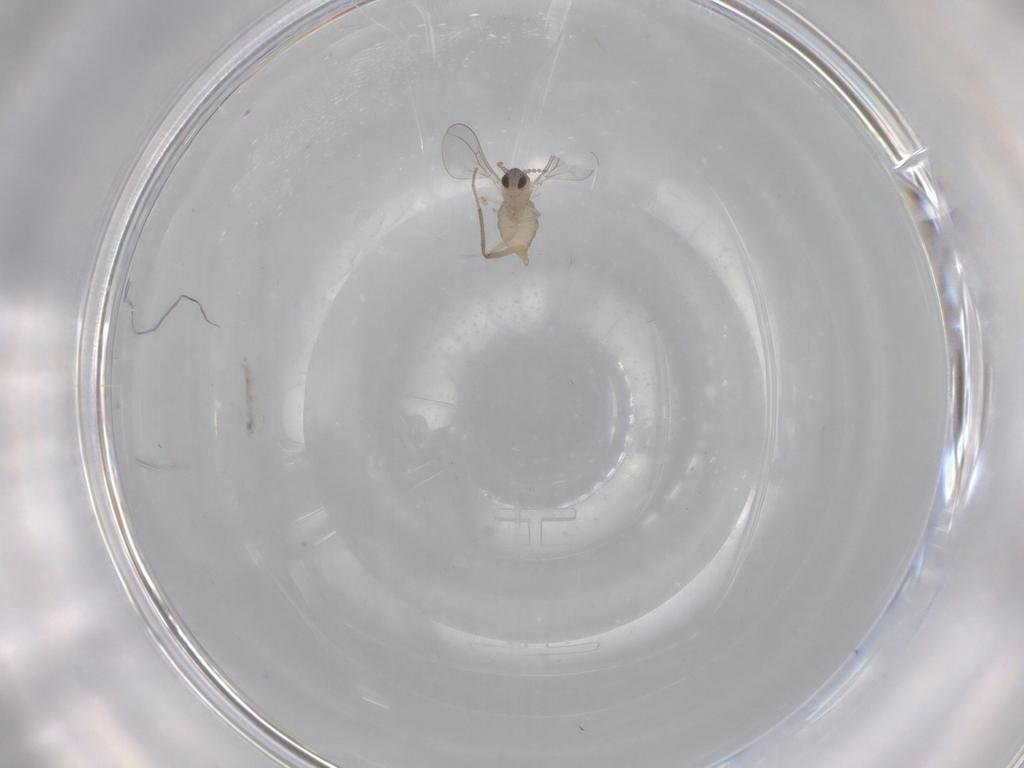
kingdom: Animalia
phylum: Arthropoda
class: Insecta
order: Diptera
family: Cecidomyiidae
